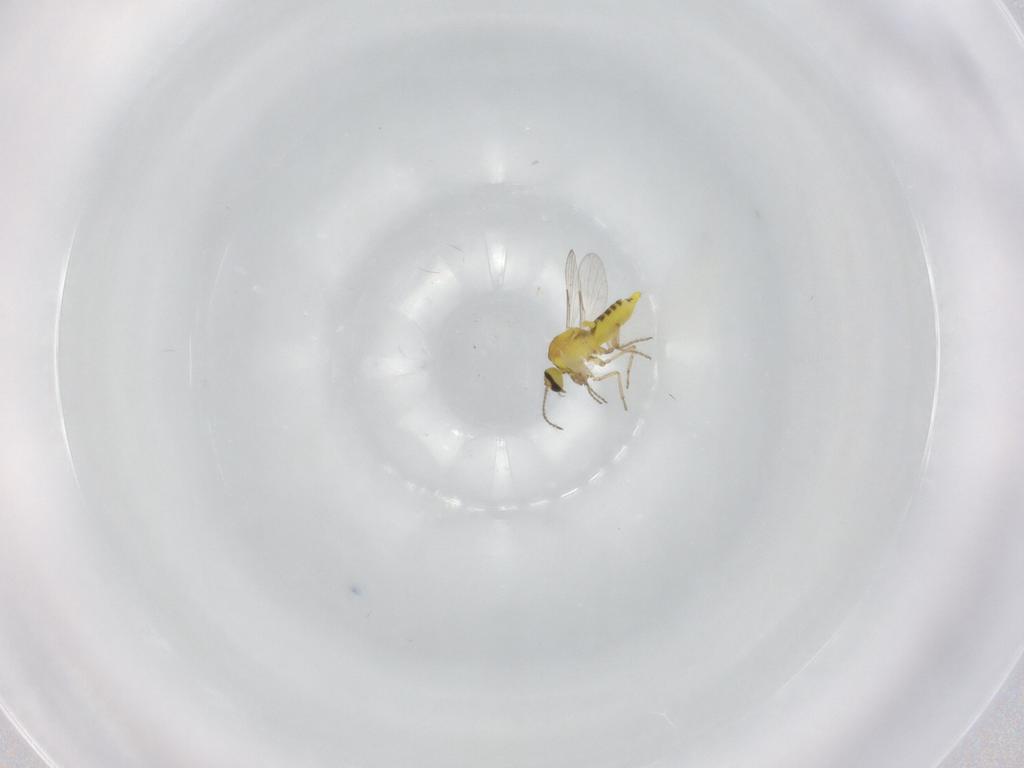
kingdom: Animalia
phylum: Arthropoda
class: Insecta
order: Diptera
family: Ceratopogonidae
